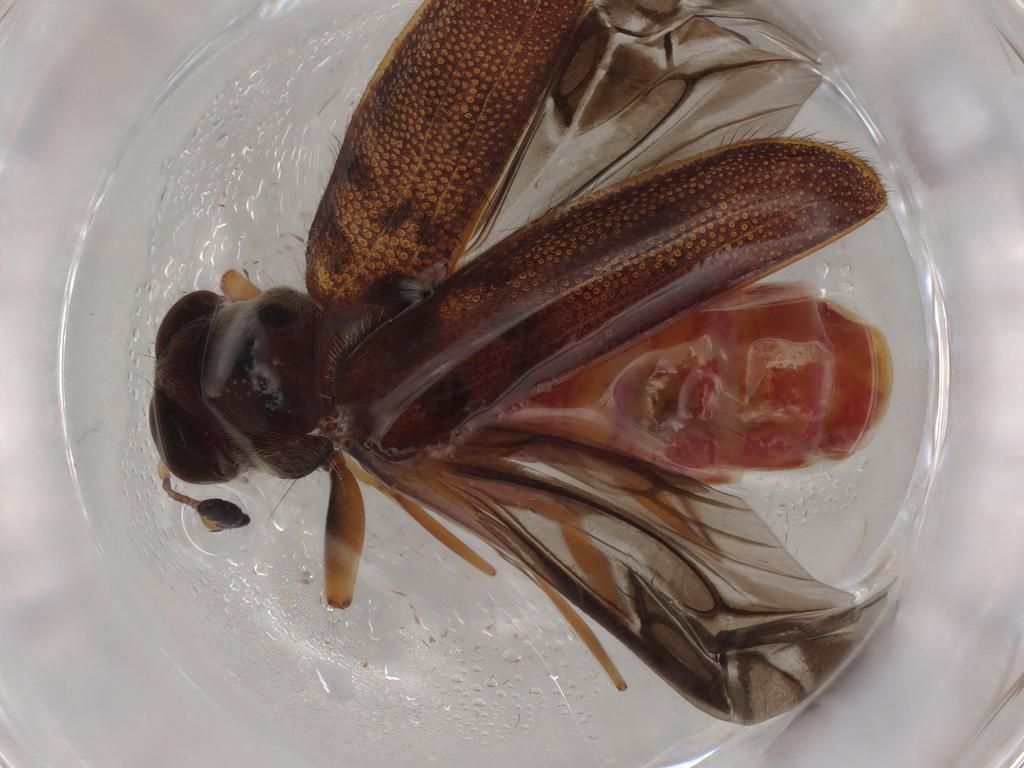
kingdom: Animalia
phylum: Arthropoda
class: Insecta
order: Coleoptera
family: Cleridae
